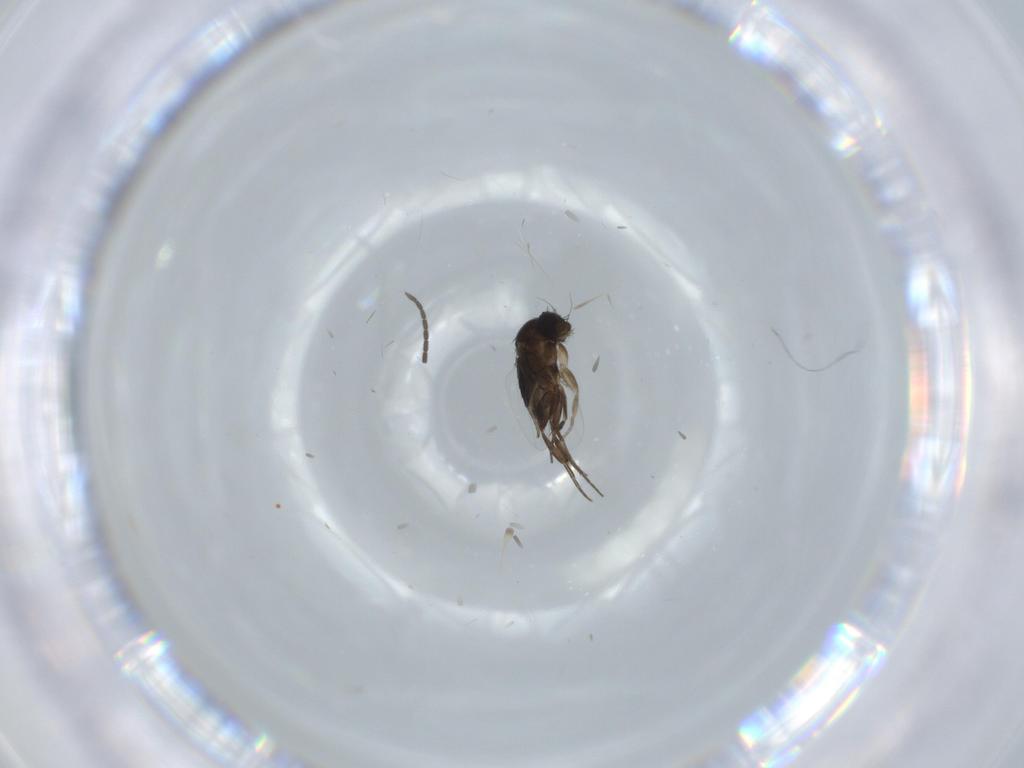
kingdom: Animalia
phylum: Arthropoda
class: Insecta
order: Diptera
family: Phoridae
